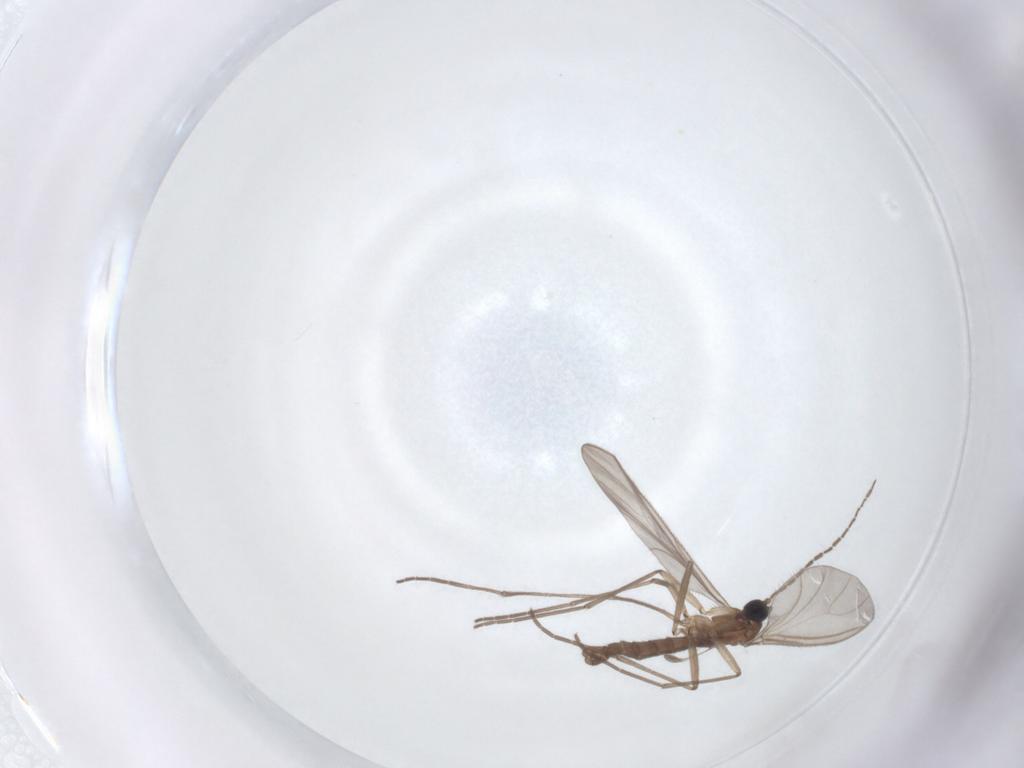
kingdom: Animalia
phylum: Arthropoda
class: Insecta
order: Diptera
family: Sciaridae
